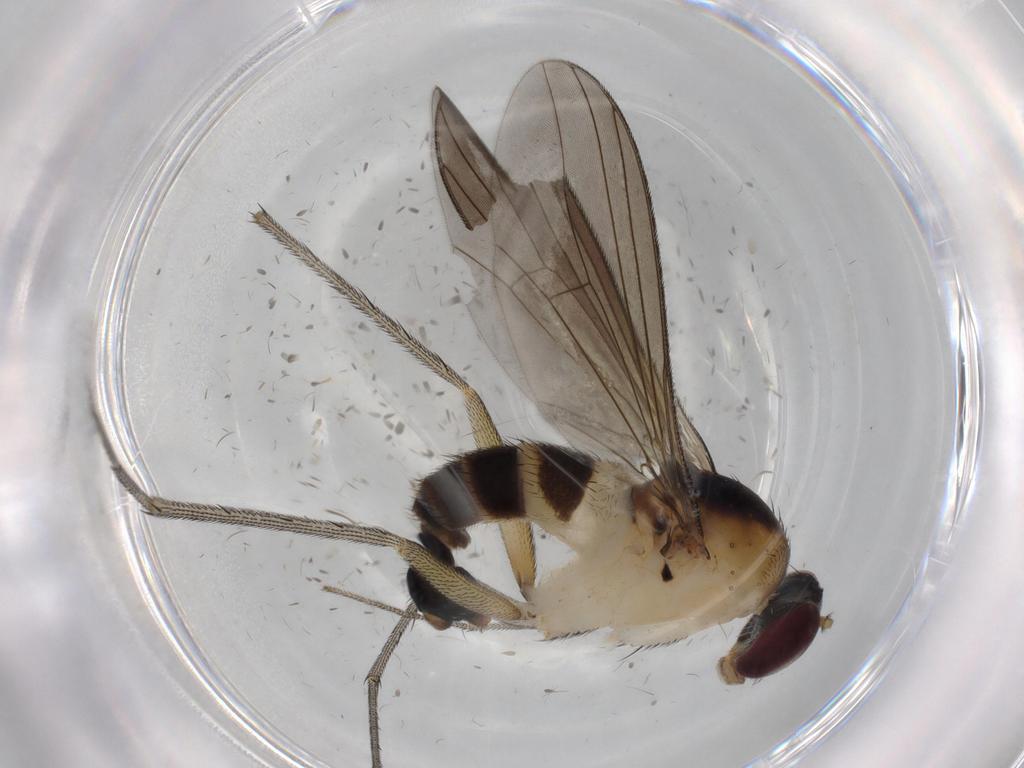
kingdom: Animalia
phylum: Arthropoda
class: Insecta
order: Diptera
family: Dolichopodidae
